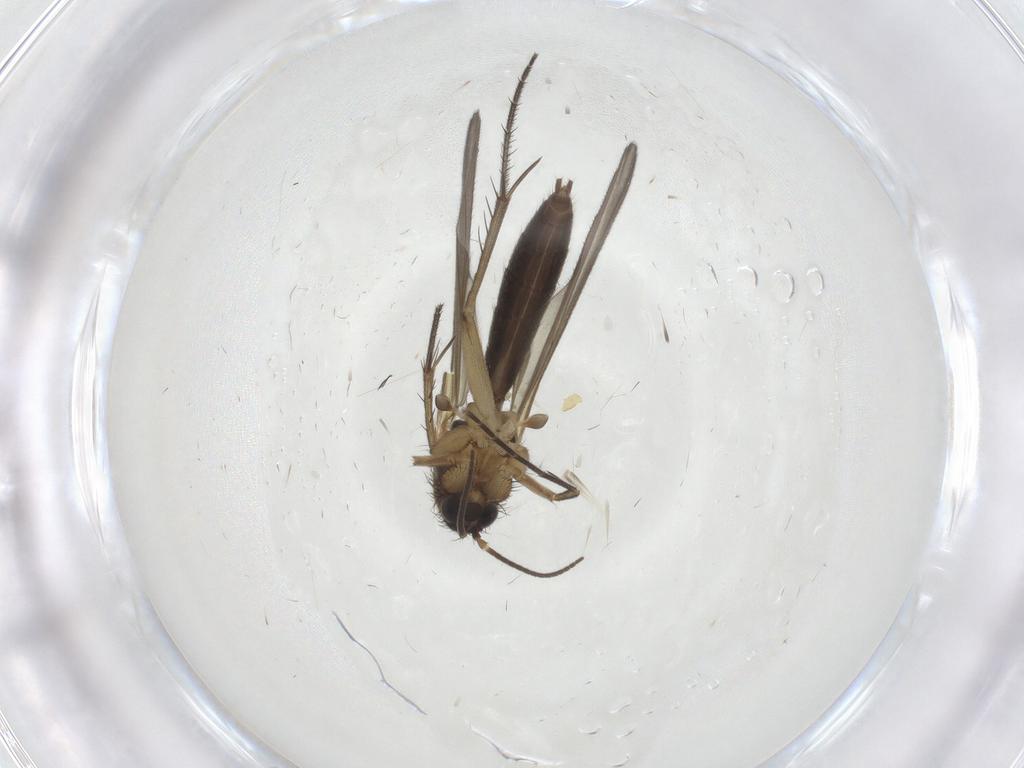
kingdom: Animalia
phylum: Arthropoda
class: Insecta
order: Diptera
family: Mycetophilidae
